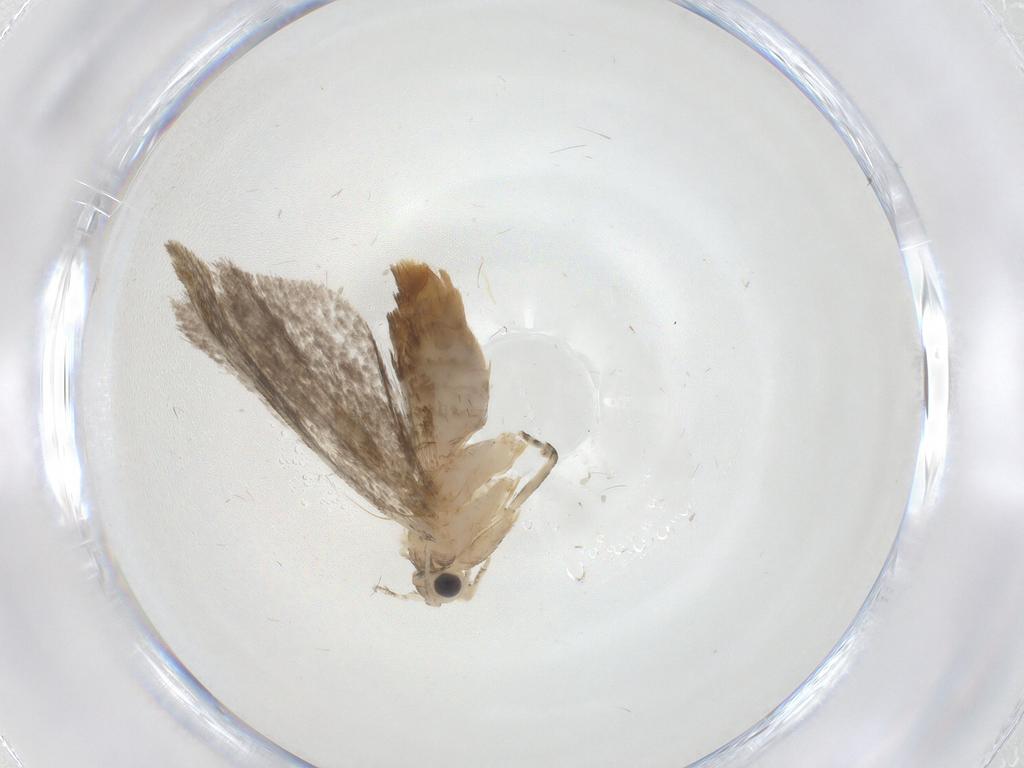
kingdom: Animalia
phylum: Arthropoda
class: Insecta
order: Lepidoptera
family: Tineidae
